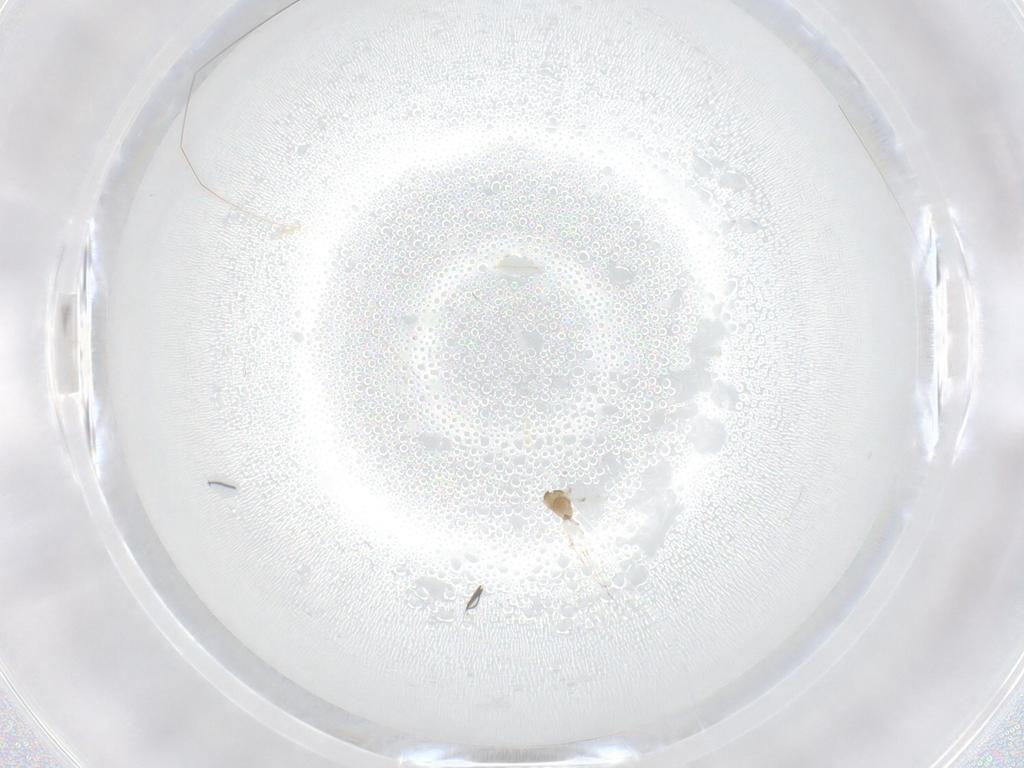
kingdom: Animalia
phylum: Arthropoda
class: Insecta
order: Diptera
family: Cecidomyiidae
